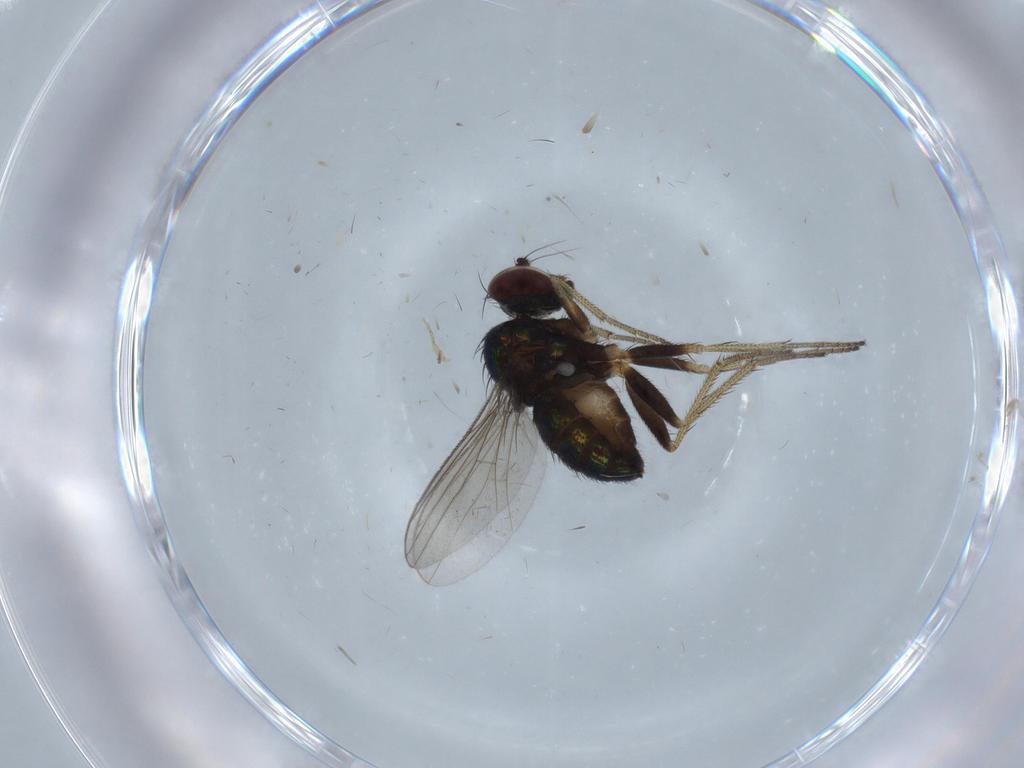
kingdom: Animalia
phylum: Arthropoda
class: Insecta
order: Diptera
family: Dolichopodidae
